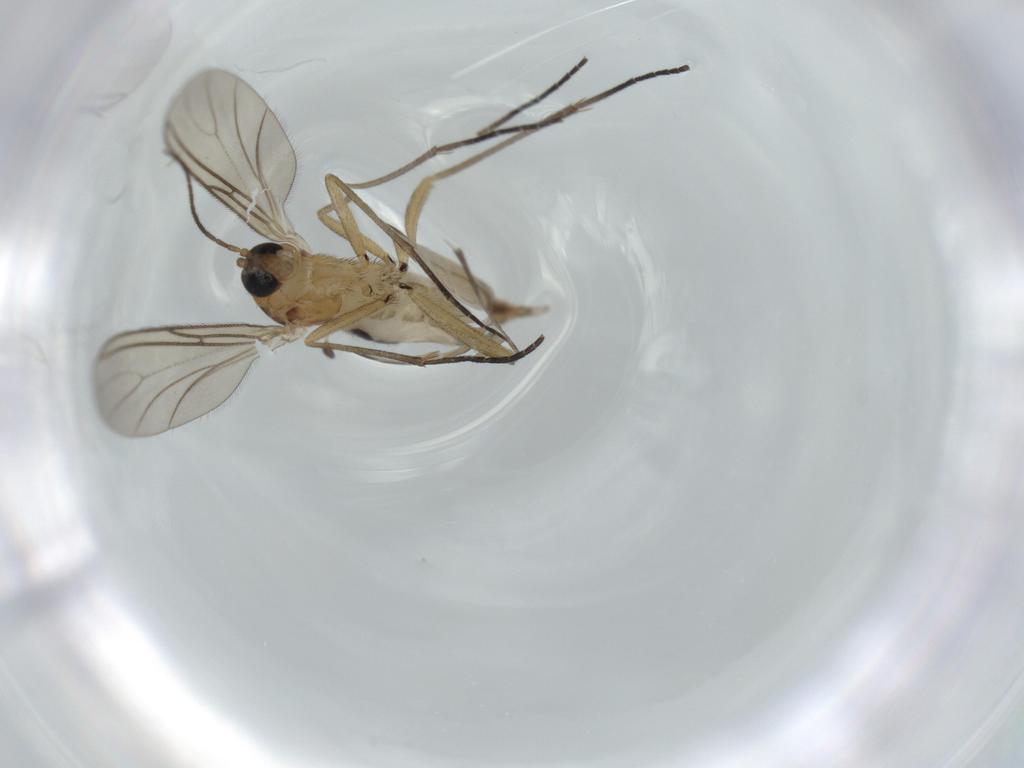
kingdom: Animalia
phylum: Arthropoda
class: Insecta
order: Diptera
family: Sciaridae
